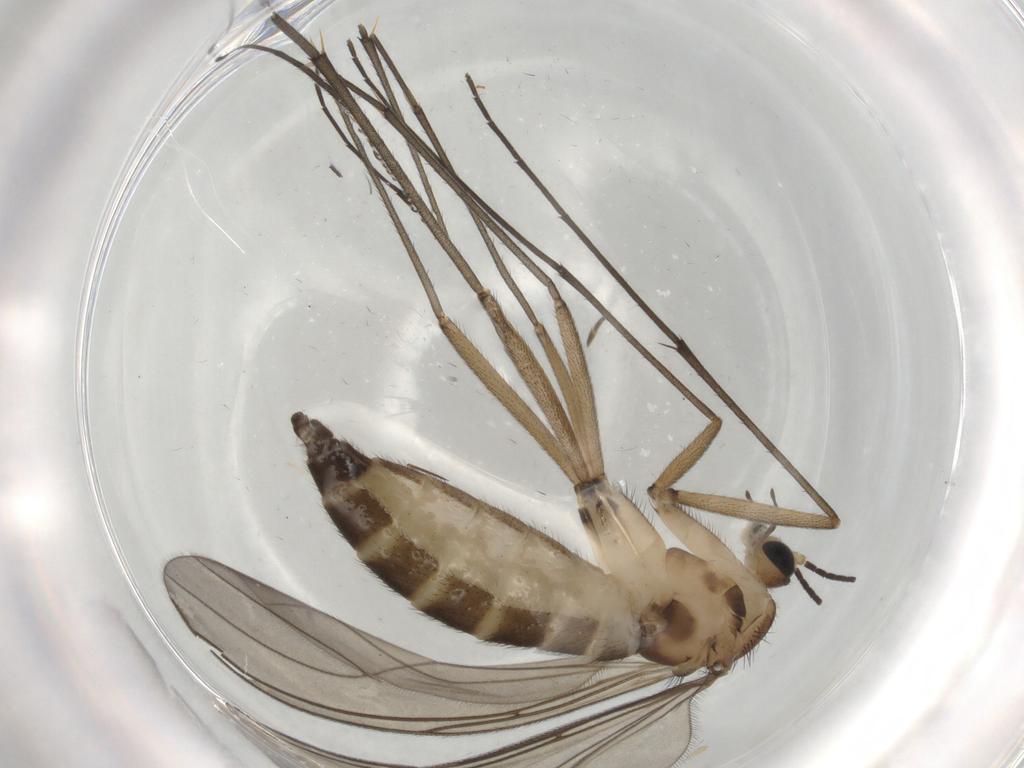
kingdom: Animalia
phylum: Arthropoda
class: Insecta
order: Diptera
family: Sciaridae
